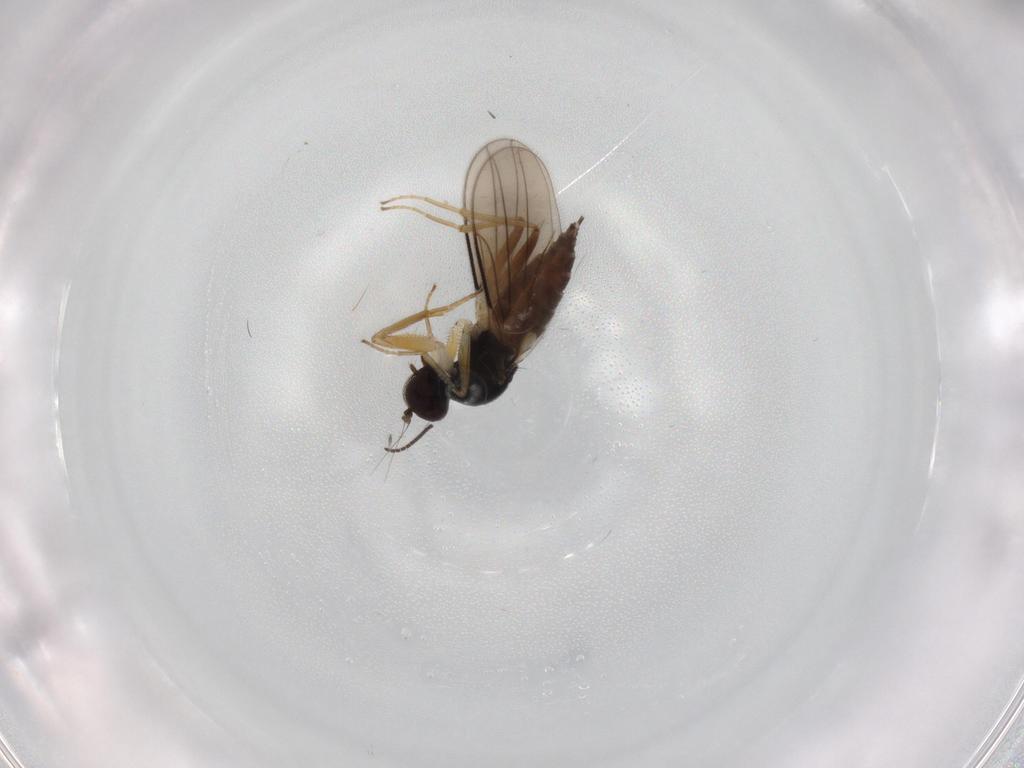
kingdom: Animalia
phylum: Arthropoda
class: Insecta
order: Diptera
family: Hybotidae
